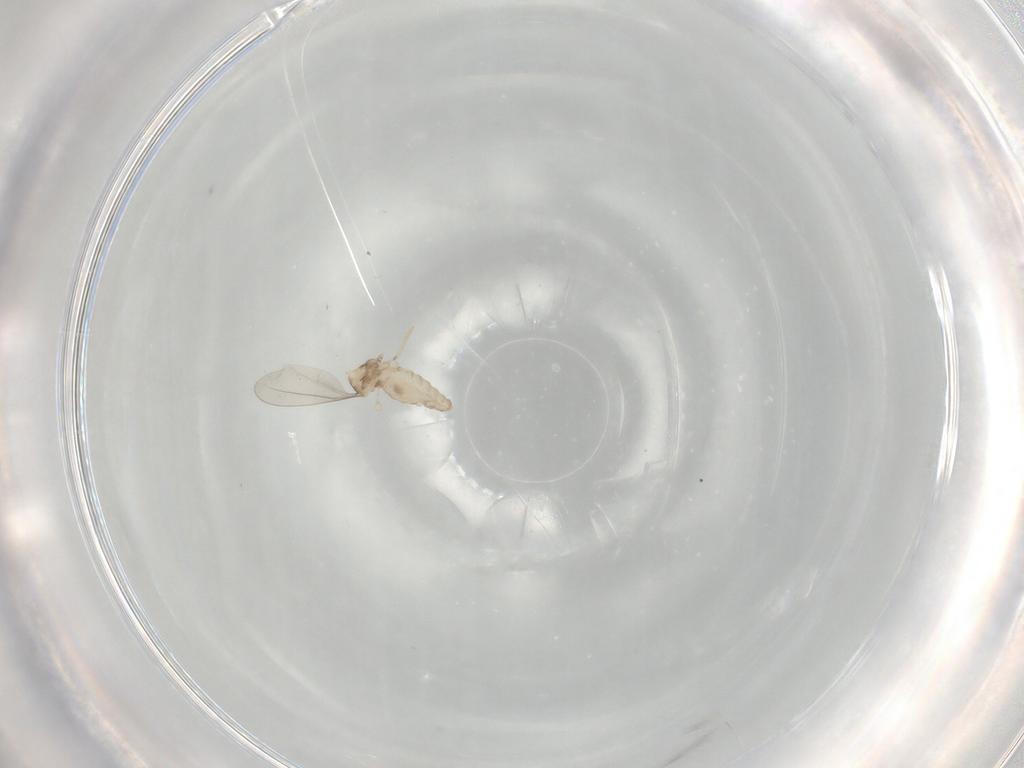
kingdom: Animalia
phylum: Arthropoda
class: Insecta
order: Diptera
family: Cecidomyiidae
